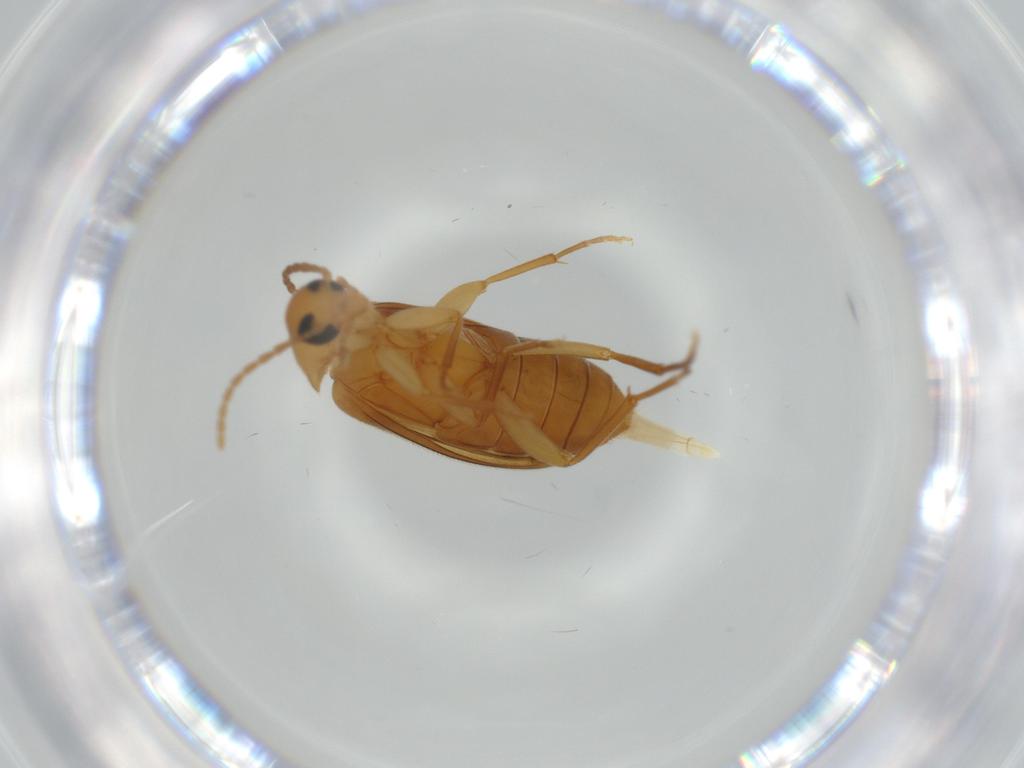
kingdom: Animalia
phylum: Arthropoda
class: Insecta
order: Coleoptera
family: Scraptiidae
